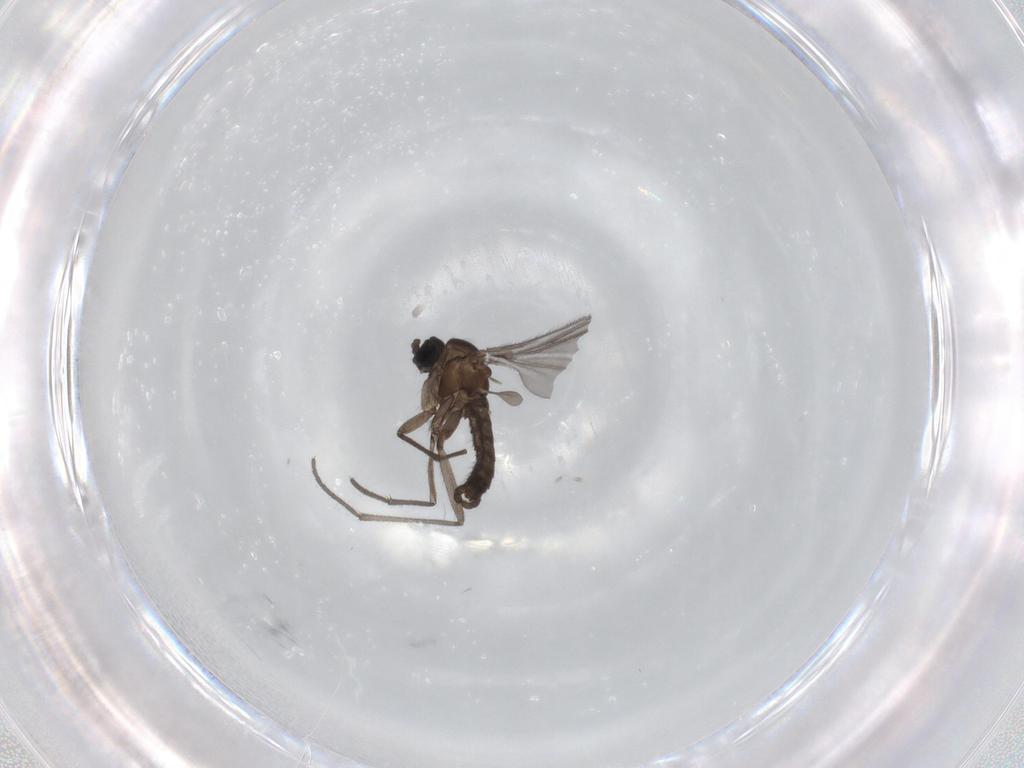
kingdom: Animalia
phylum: Arthropoda
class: Insecta
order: Diptera
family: Sciaridae
